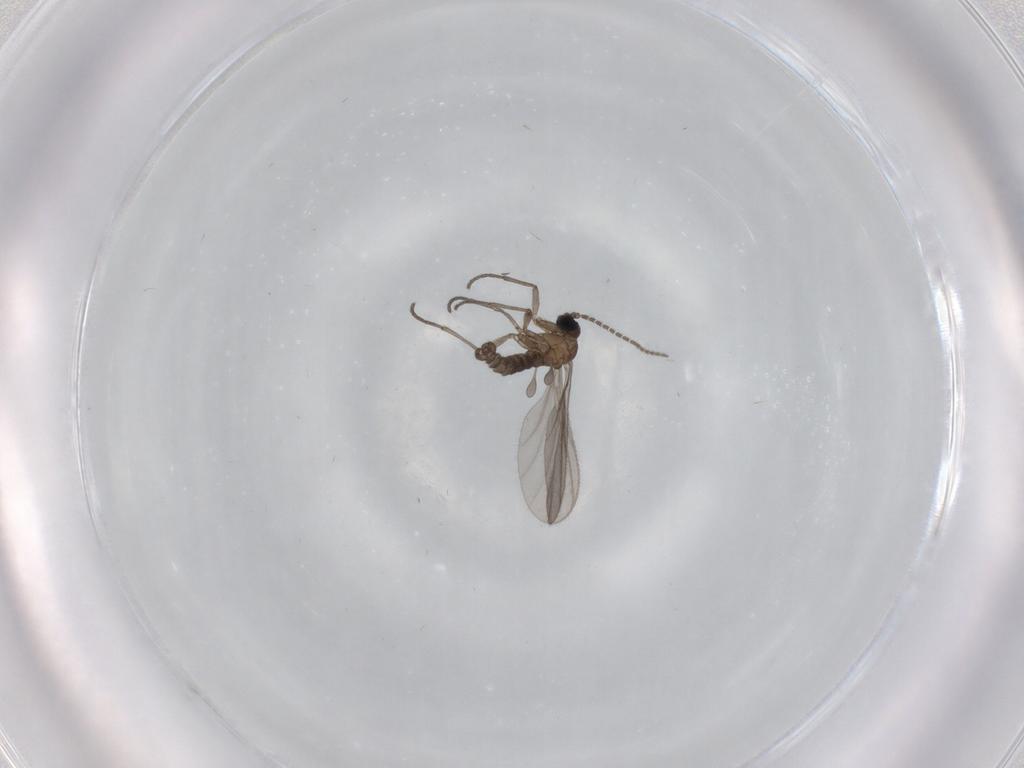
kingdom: Animalia
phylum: Arthropoda
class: Insecta
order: Diptera
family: Sciaridae
